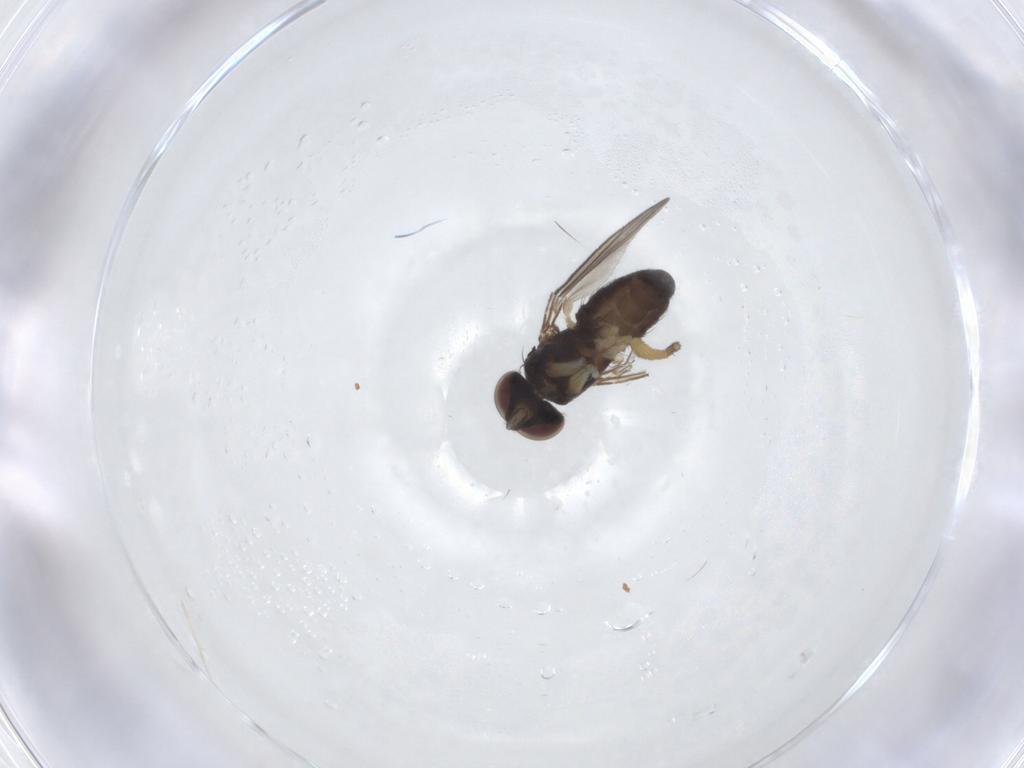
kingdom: Animalia
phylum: Arthropoda
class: Insecta
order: Diptera
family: Dolichopodidae
